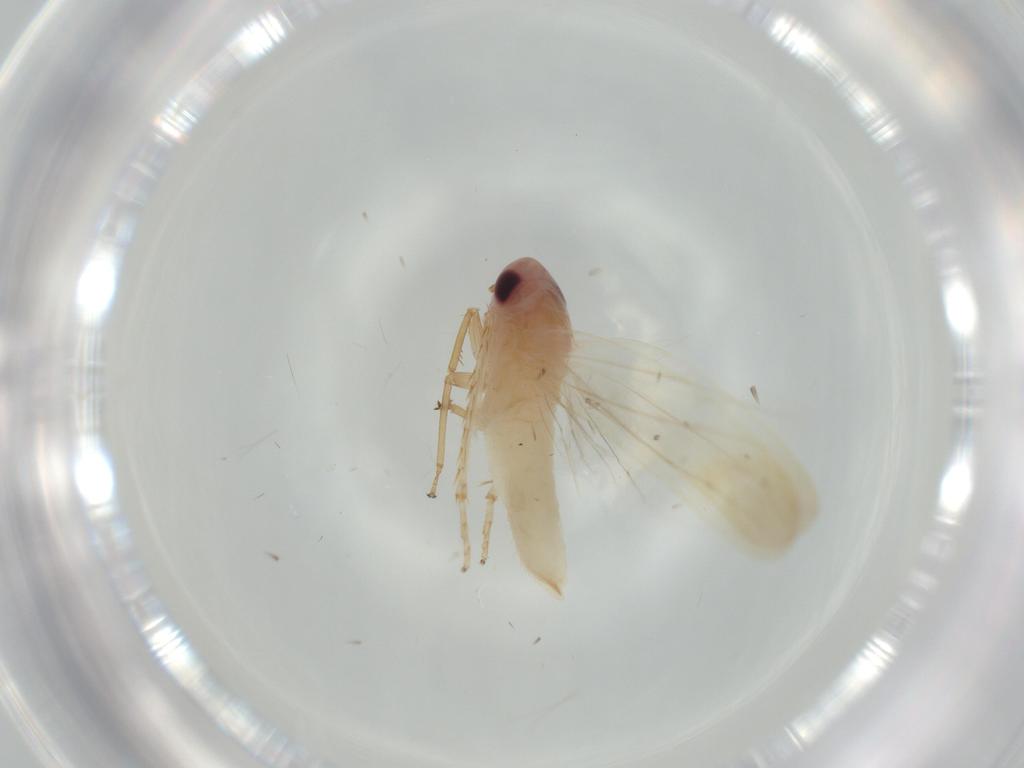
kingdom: Animalia
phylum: Arthropoda
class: Insecta
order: Hemiptera
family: Cicadellidae
